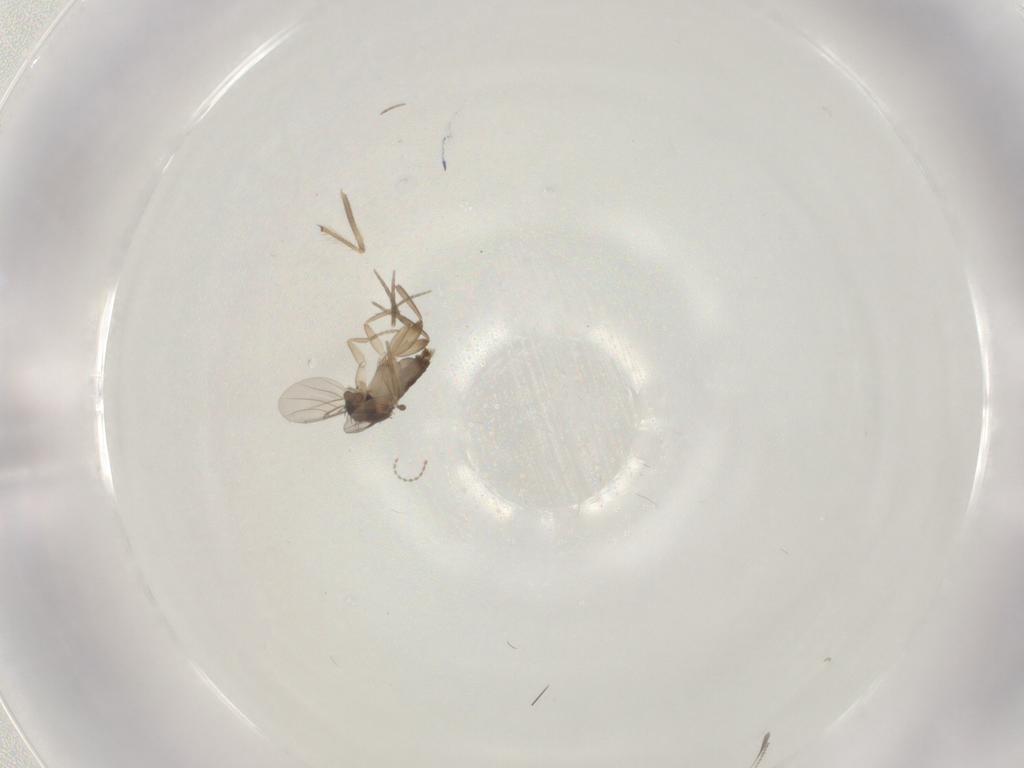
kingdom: Animalia
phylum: Arthropoda
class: Insecta
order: Diptera
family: Phoridae
